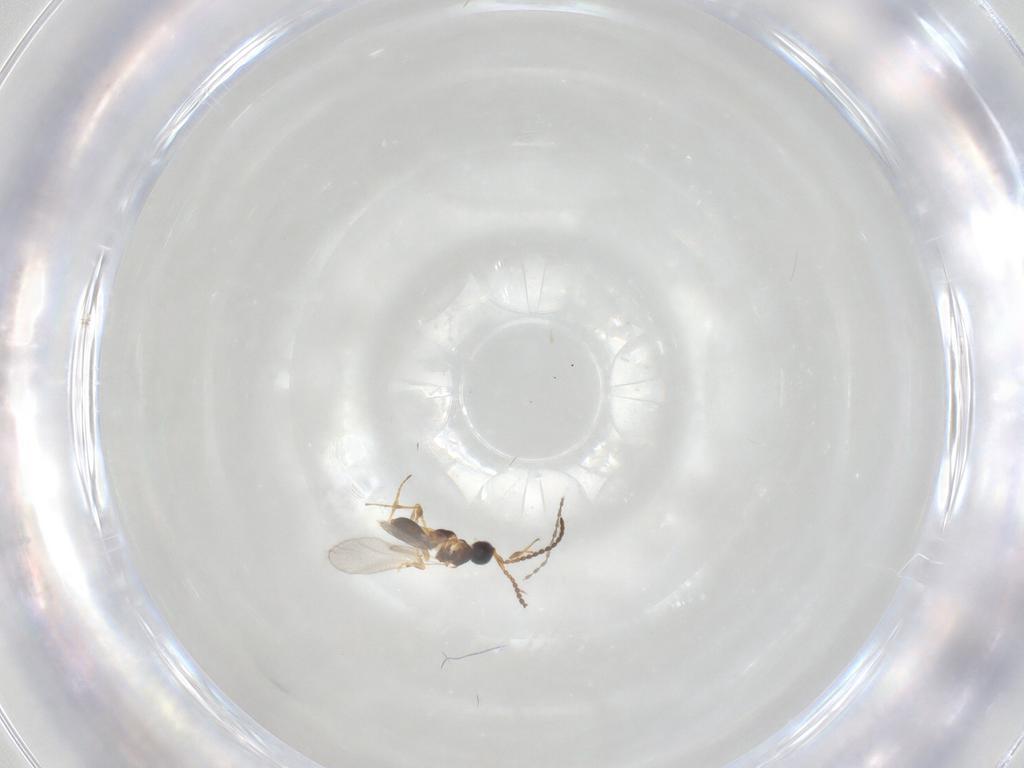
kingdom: Animalia
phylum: Arthropoda
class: Insecta
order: Hymenoptera
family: Diapriidae
